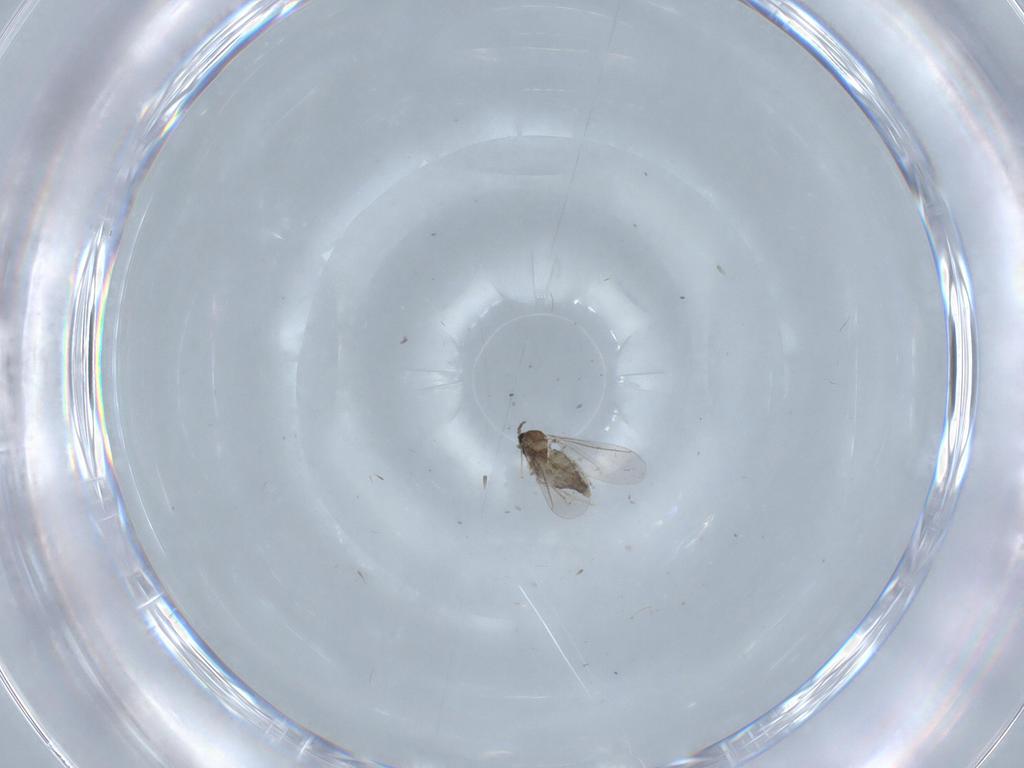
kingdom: Animalia
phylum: Arthropoda
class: Insecta
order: Diptera
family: Cecidomyiidae
